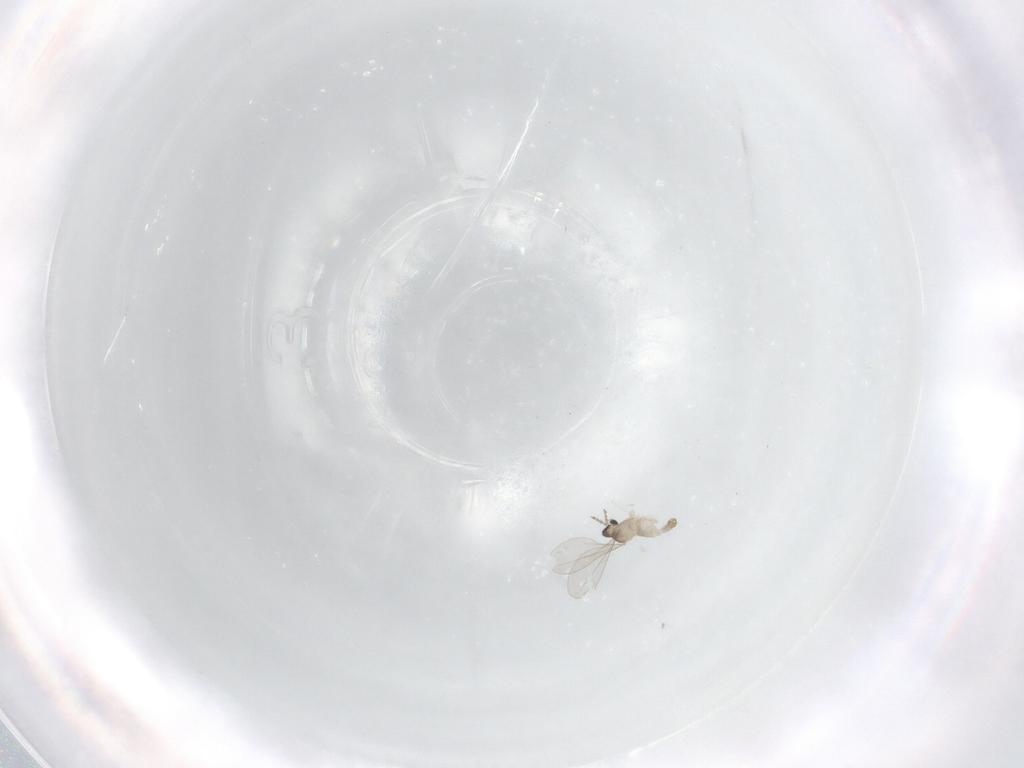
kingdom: Animalia
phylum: Arthropoda
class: Insecta
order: Diptera
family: Cecidomyiidae
